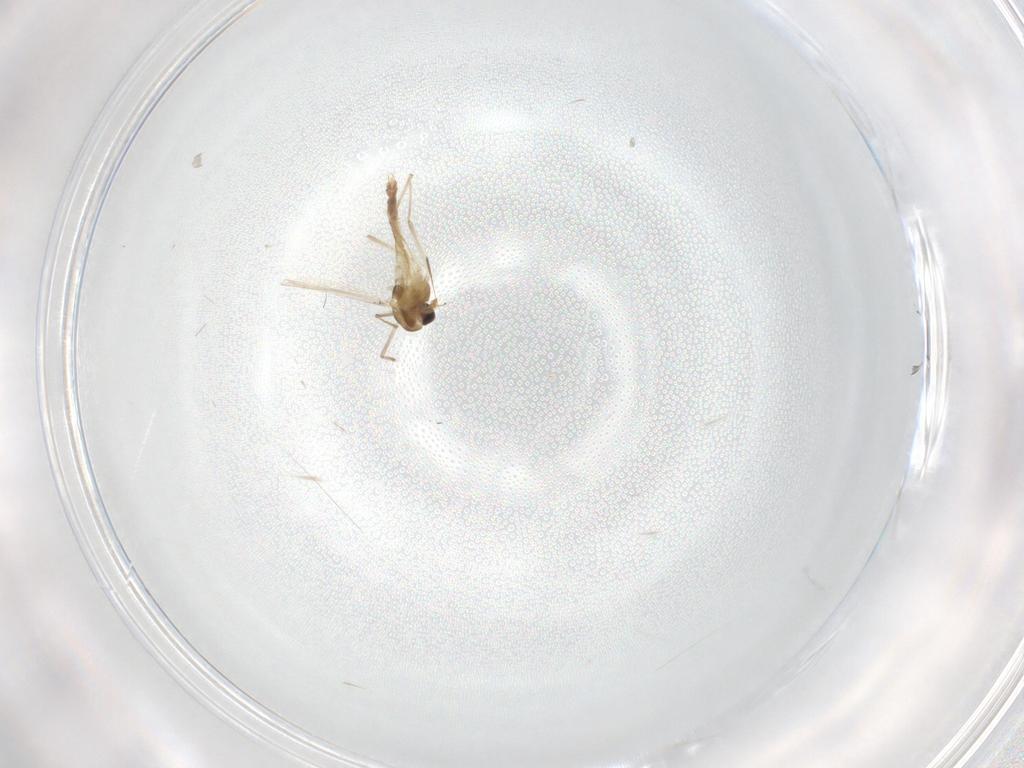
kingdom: Animalia
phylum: Arthropoda
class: Insecta
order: Diptera
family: Chironomidae
